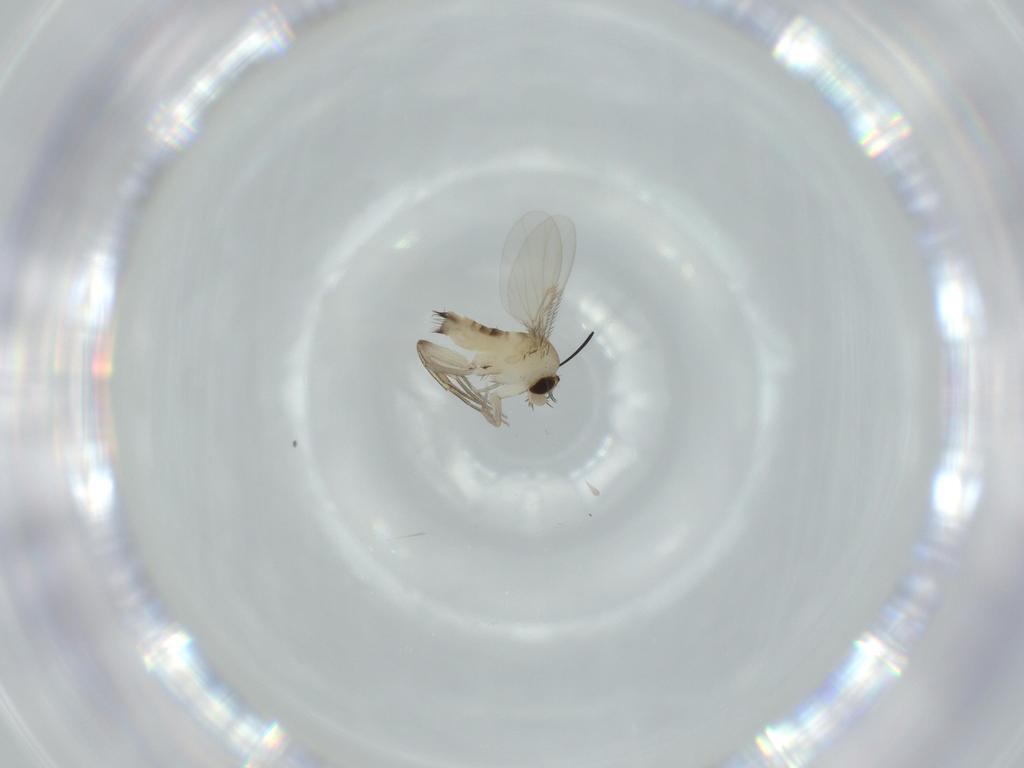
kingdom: Animalia
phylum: Arthropoda
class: Insecta
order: Diptera
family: Phoridae
